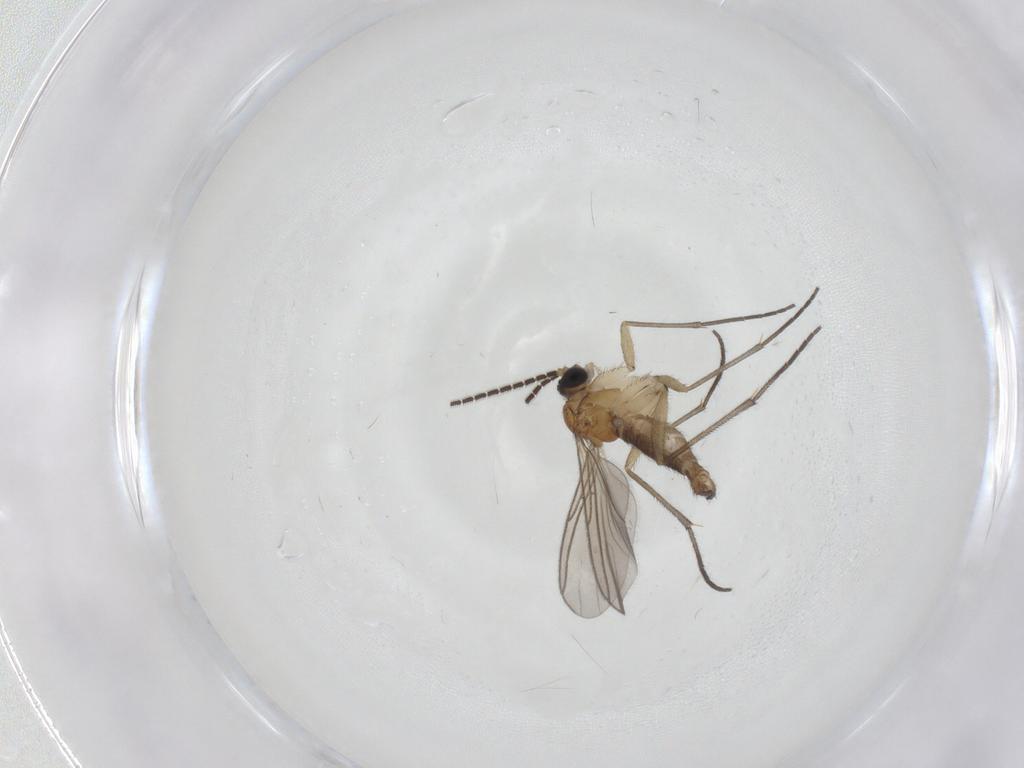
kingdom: Animalia
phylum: Arthropoda
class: Insecta
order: Diptera
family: Sciaridae
